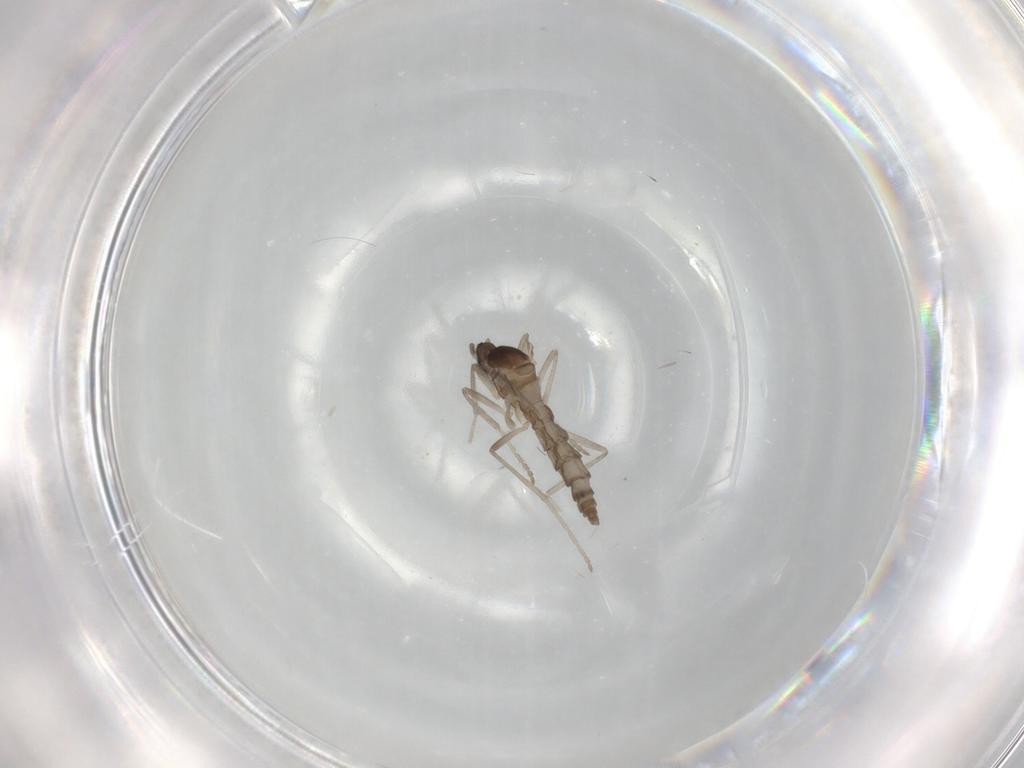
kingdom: Animalia
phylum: Arthropoda
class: Insecta
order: Diptera
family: Cecidomyiidae
